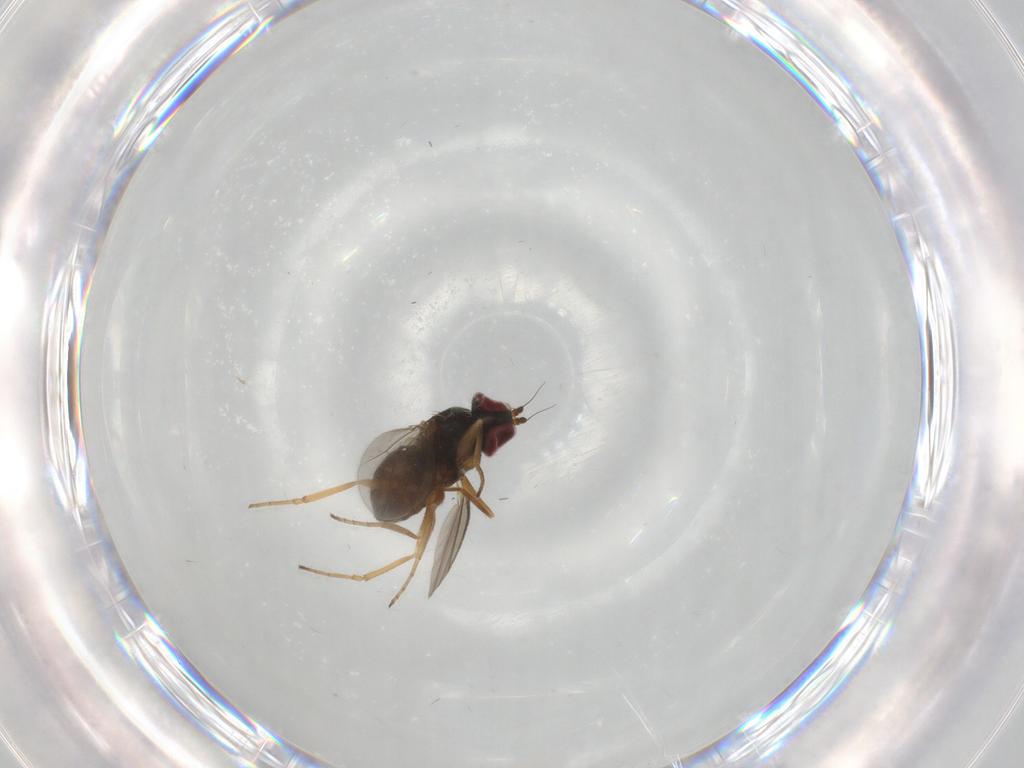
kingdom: Animalia
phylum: Arthropoda
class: Insecta
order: Diptera
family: Dolichopodidae
